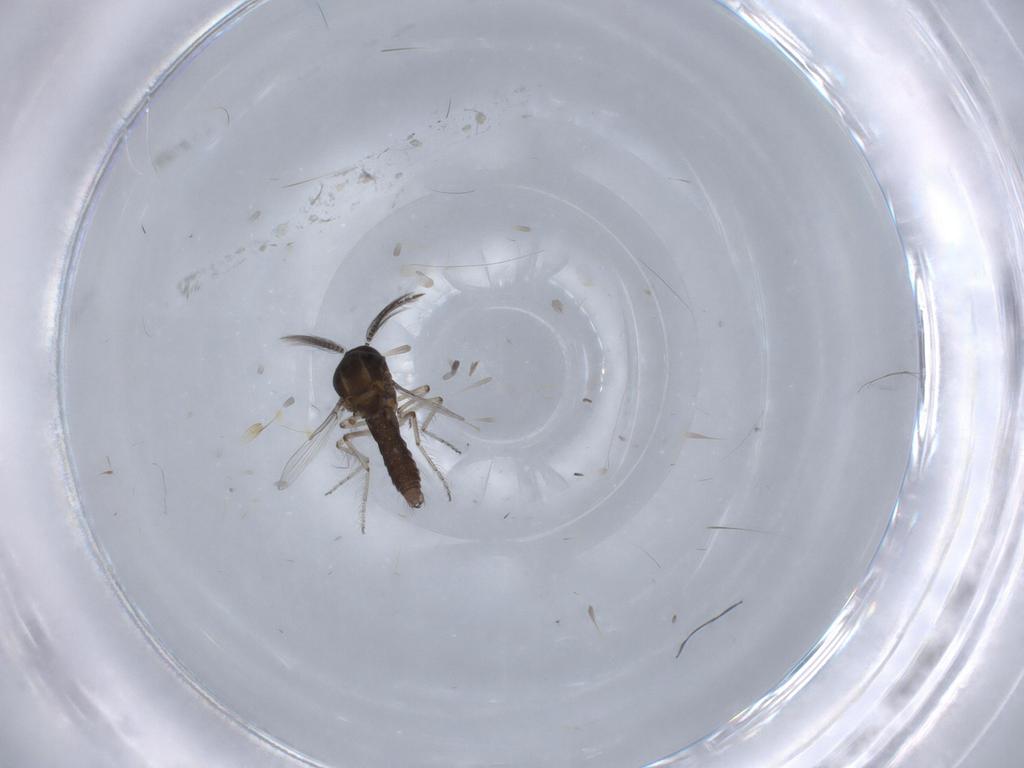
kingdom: Animalia
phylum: Arthropoda
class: Insecta
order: Diptera
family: Ceratopogonidae
